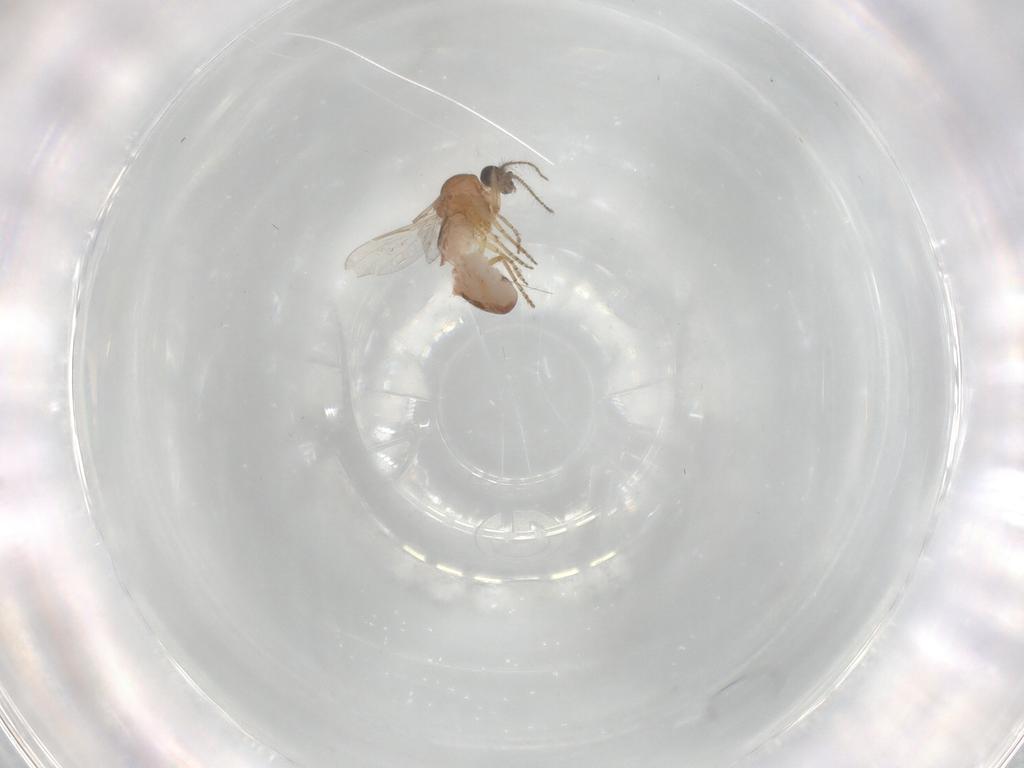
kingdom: Animalia
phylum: Arthropoda
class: Insecta
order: Diptera
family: Ceratopogonidae
